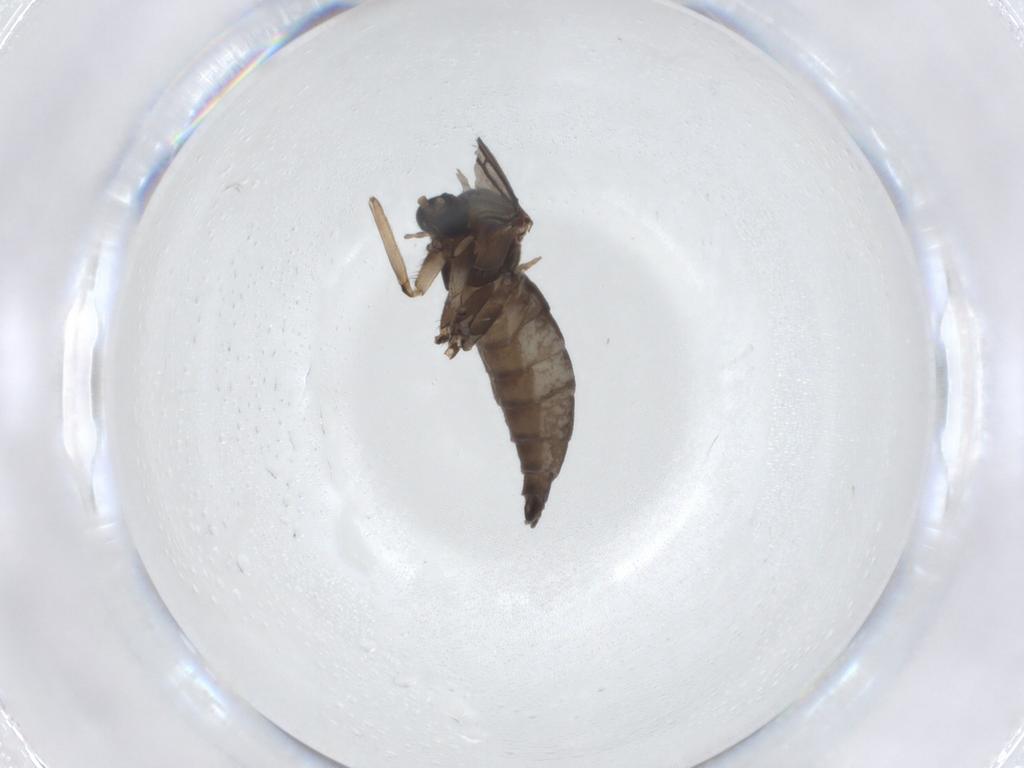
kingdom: Animalia
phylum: Arthropoda
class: Insecta
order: Diptera
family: Sciaridae
